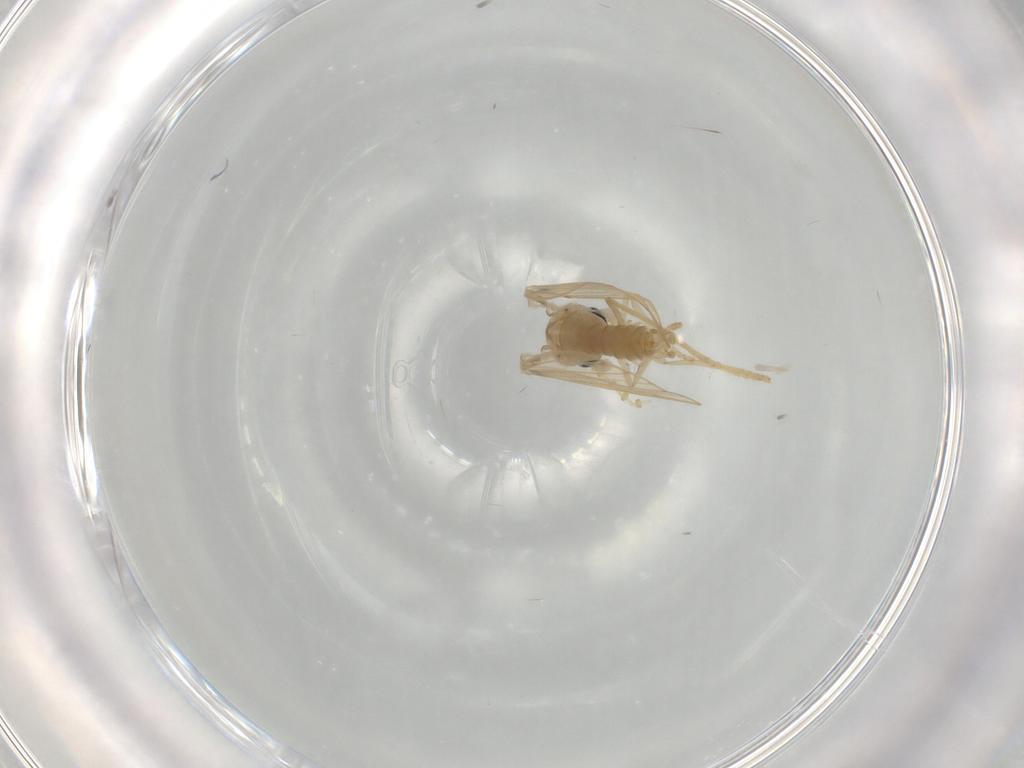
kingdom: Animalia
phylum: Arthropoda
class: Insecta
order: Diptera
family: Psychodidae
